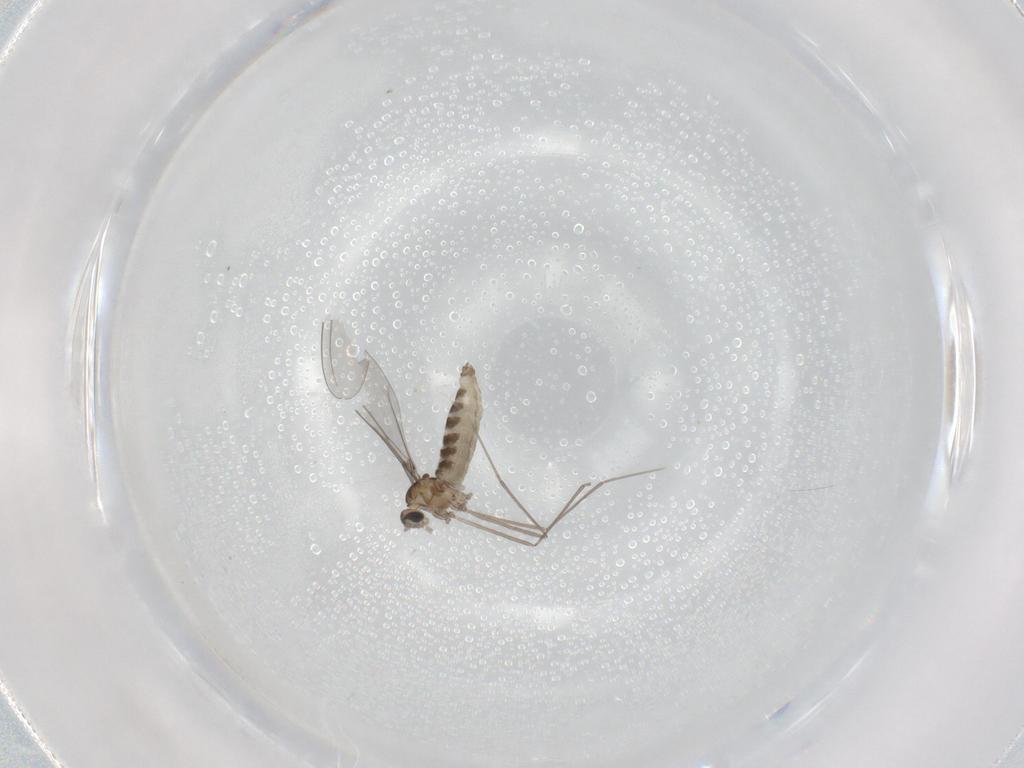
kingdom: Animalia
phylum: Arthropoda
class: Insecta
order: Diptera
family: Cecidomyiidae
